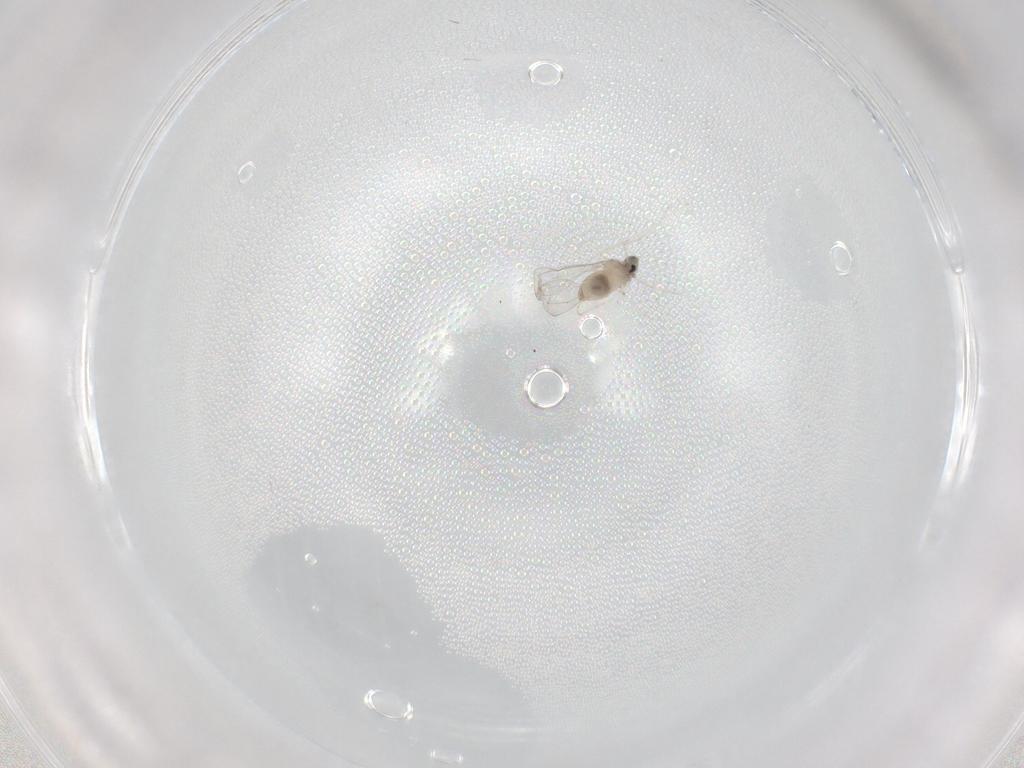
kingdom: Animalia
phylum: Arthropoda
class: Insecta
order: Diptera
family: Cecidomyiidae
